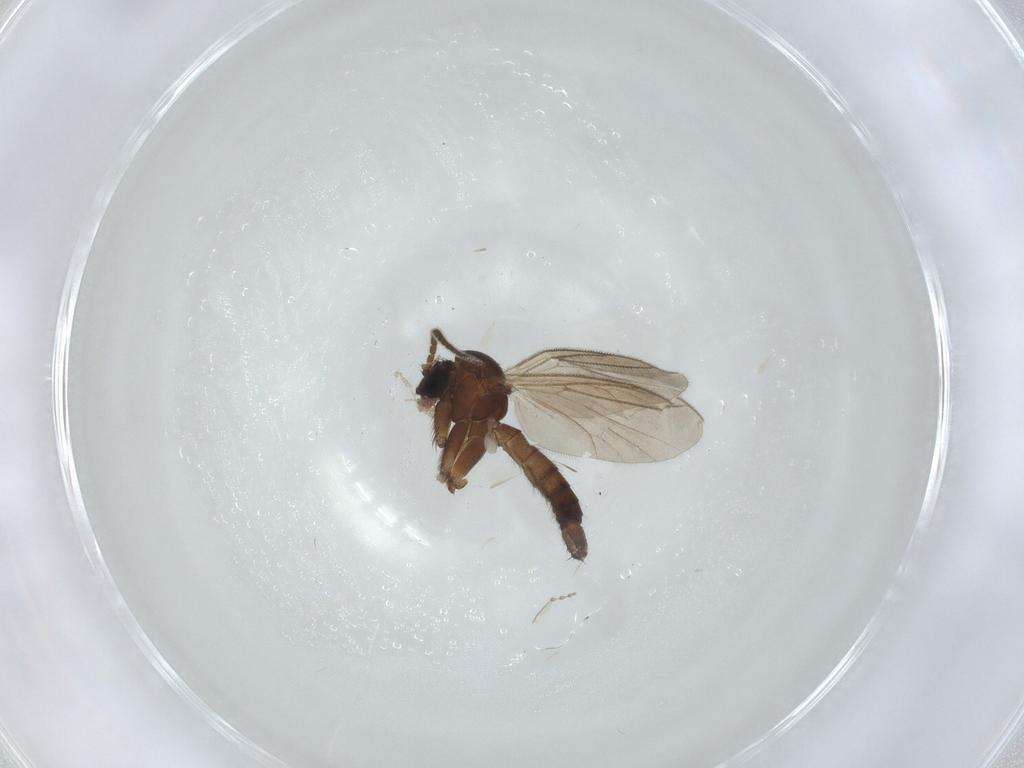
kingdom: Animalia
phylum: Arthropoda
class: Insecta
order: Diptera
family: Mycetophilidae
